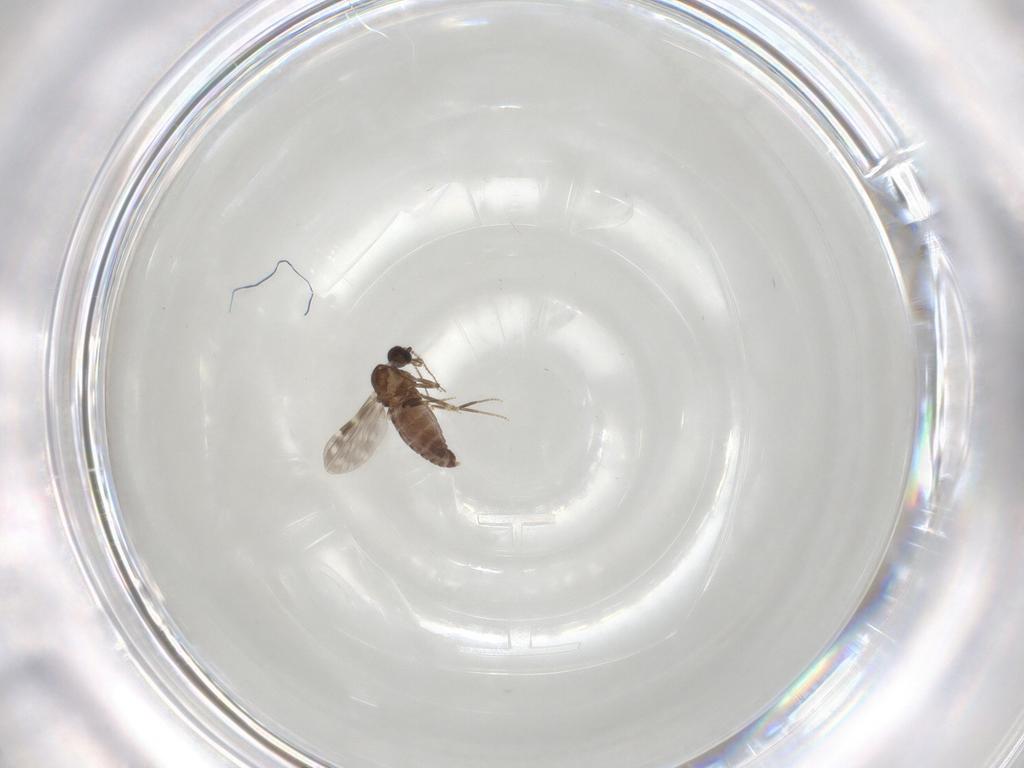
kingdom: Animalia
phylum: Arthropoda
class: Insecta
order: Diptera
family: Ceratopogonidae
